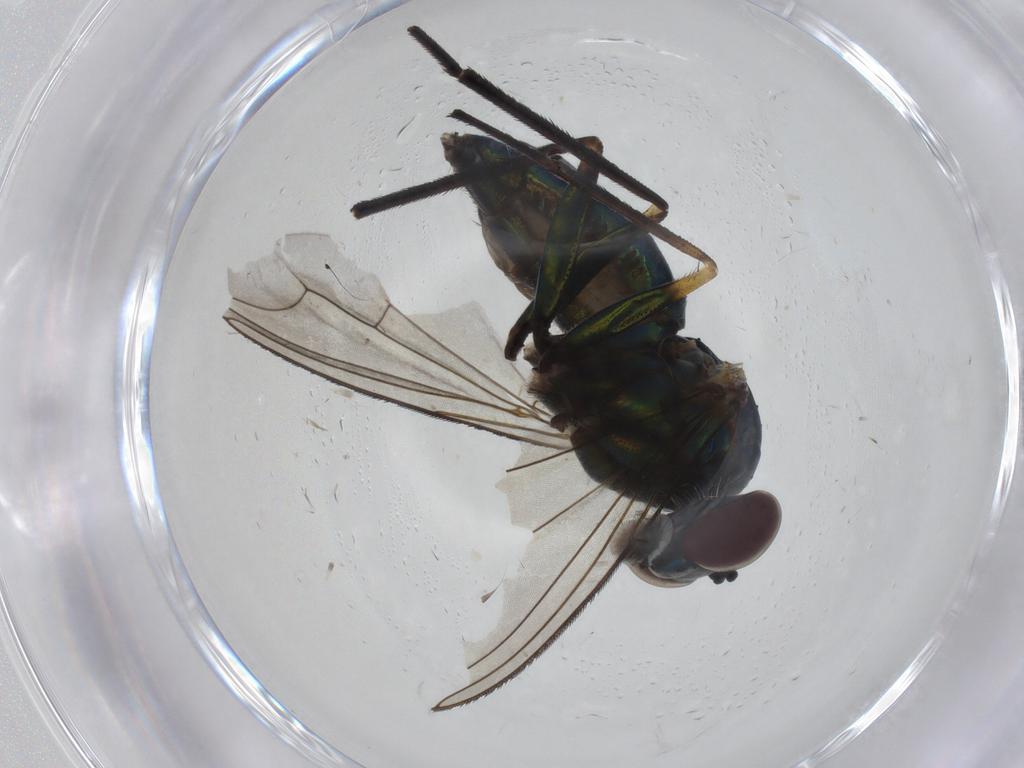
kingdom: Animalia
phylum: Arthropoda
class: Insecta
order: Diptera
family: Dolichopodidae
